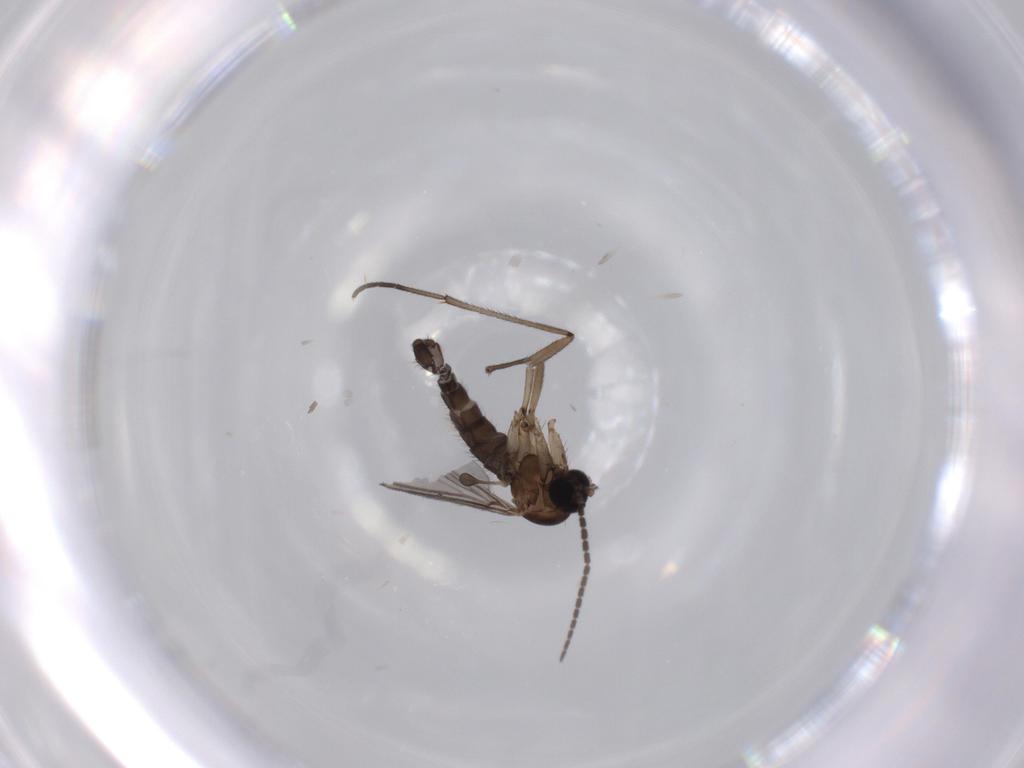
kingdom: Animalia
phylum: Arthropoda
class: Insecta
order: Diptera
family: Sciaridae
